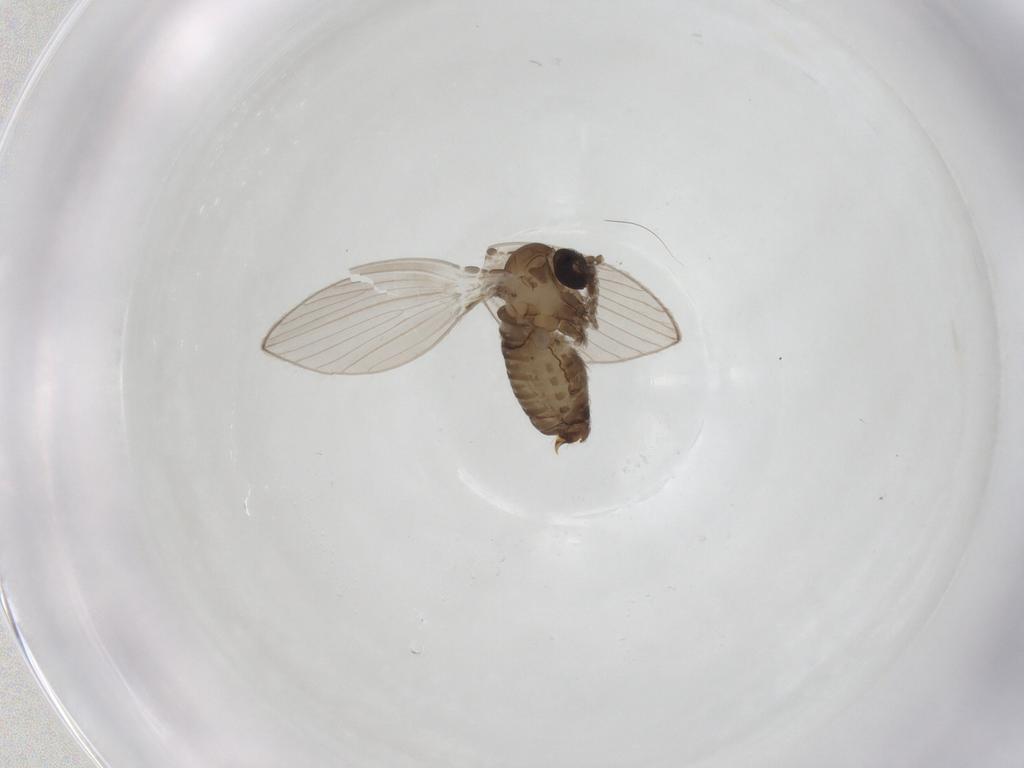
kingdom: Animalia
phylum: Arthropoda
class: Insecta
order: Diptera
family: Psychodidae
